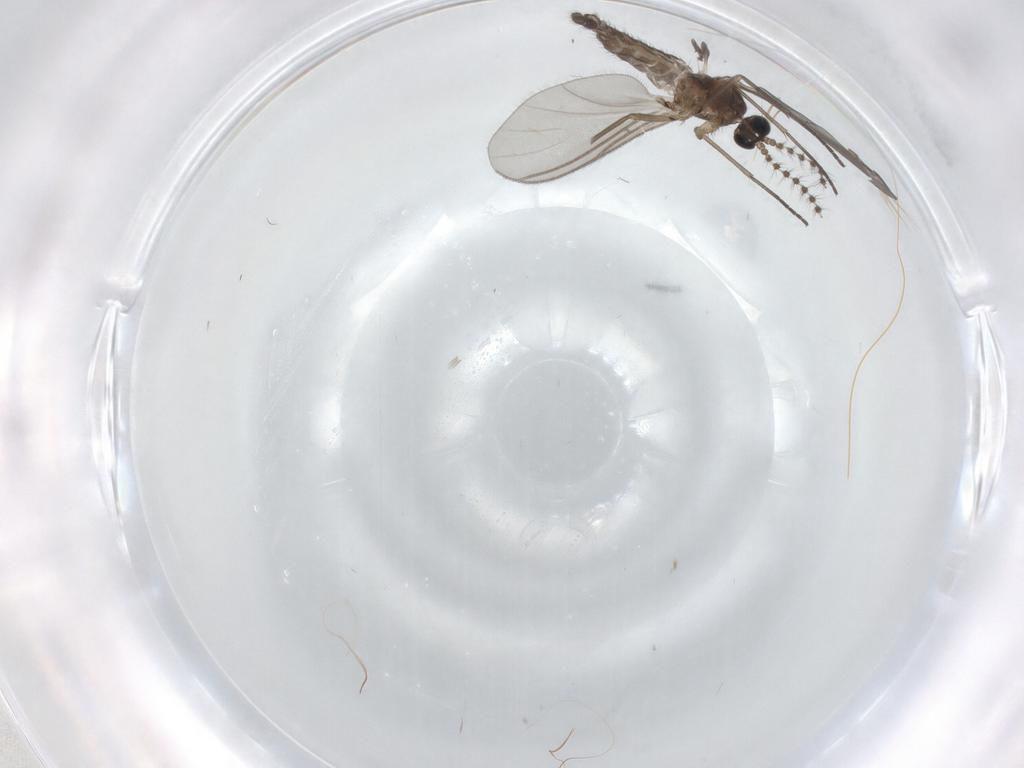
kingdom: Animalia
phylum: Arthropoda
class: Insecta
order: Diptera
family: Sciaridae
